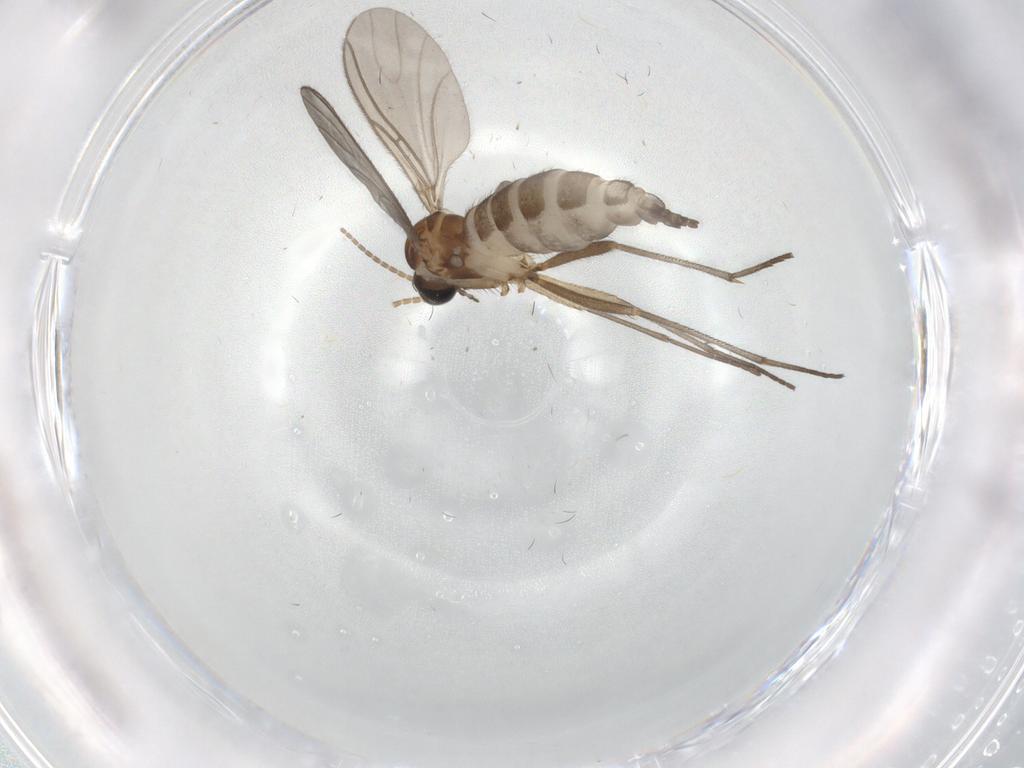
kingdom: Animalia
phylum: Arthropoda
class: Insecta
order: Diptera
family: Sciaridae
